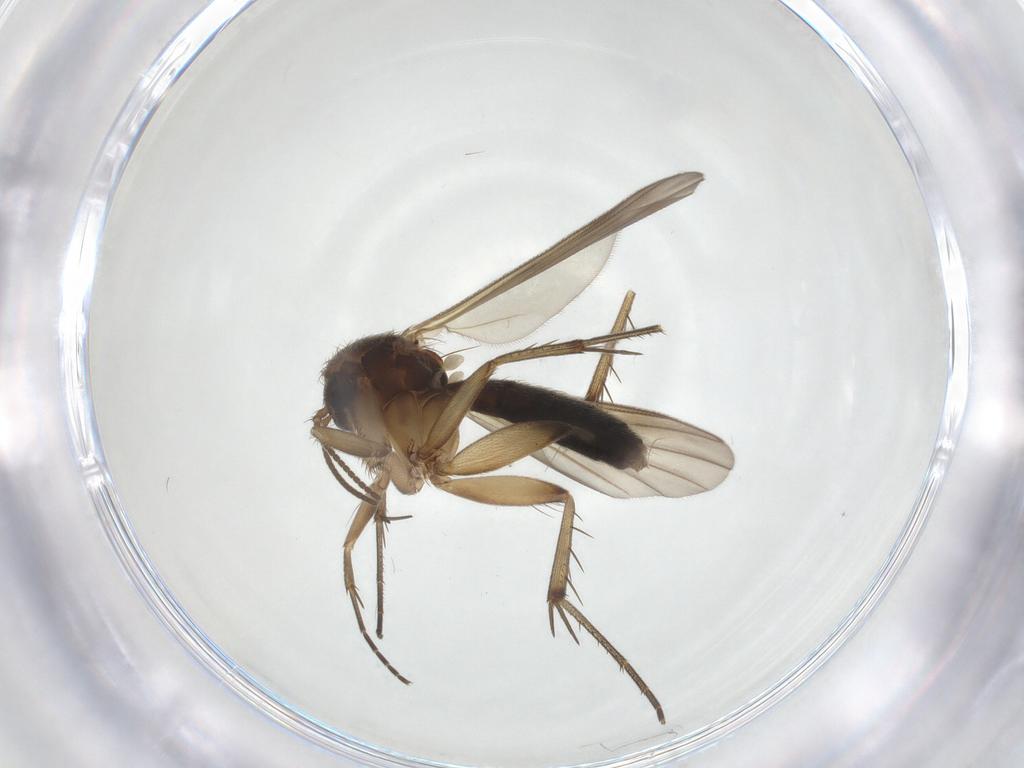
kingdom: Animalia
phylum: Arthropoda
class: Insecta
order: Diptera
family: Mycetophilidae
